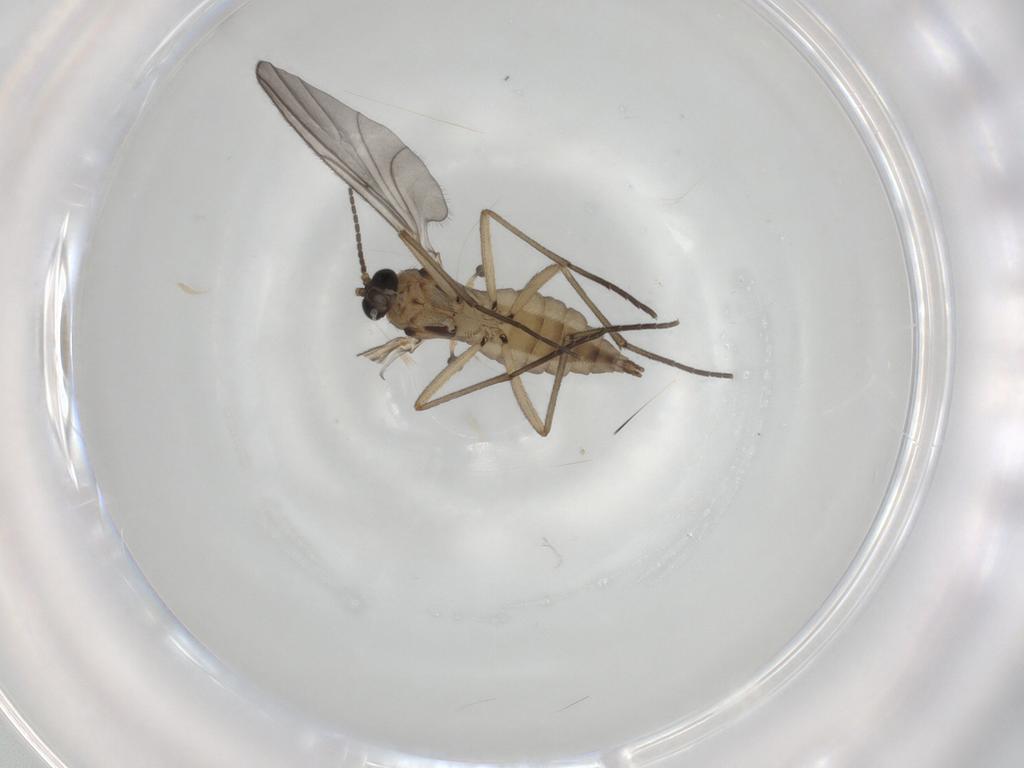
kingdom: Animalia
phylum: Arthropoda
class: Insecta
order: Diptera
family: Sciaridae
